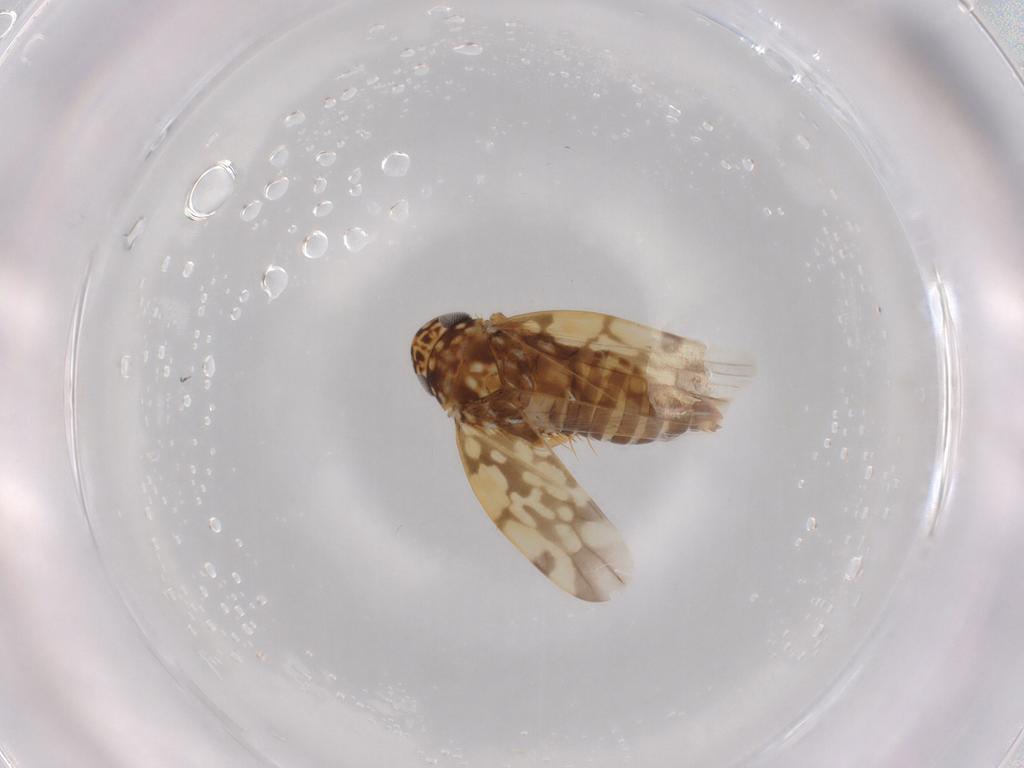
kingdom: Animalia
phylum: Arthropoda
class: Insecta
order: Hemiptera
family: Cicadellidae
